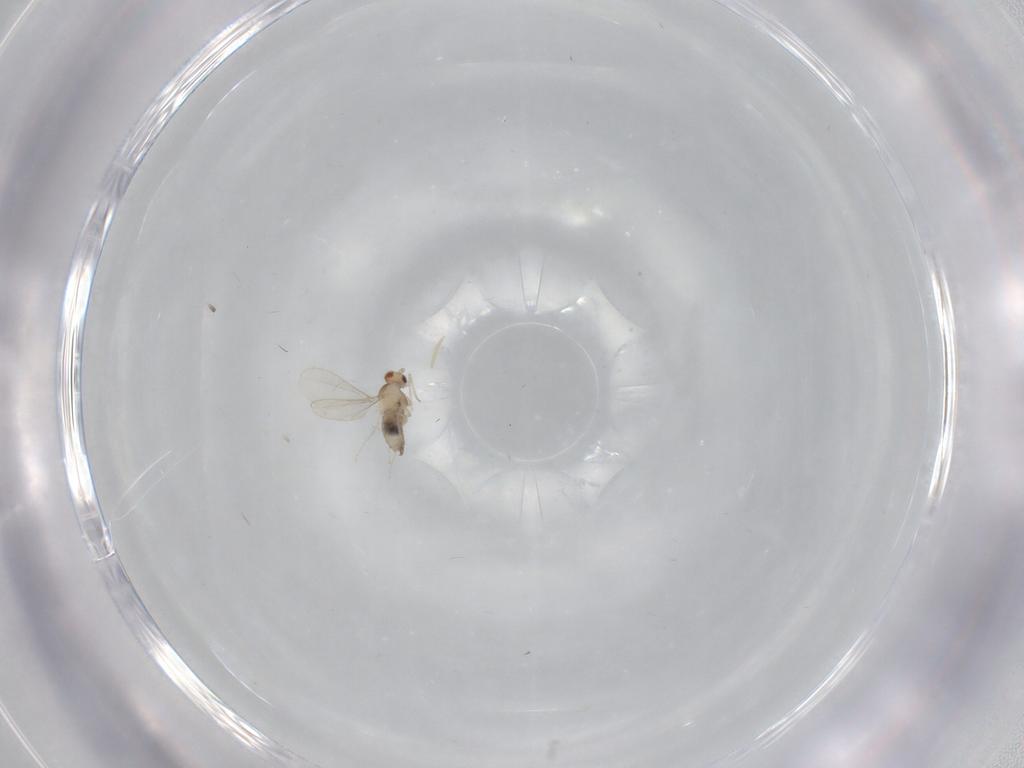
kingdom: Animalia
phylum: Arthropoda
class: Insecta
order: Diptera
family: Cecidomyiidae
